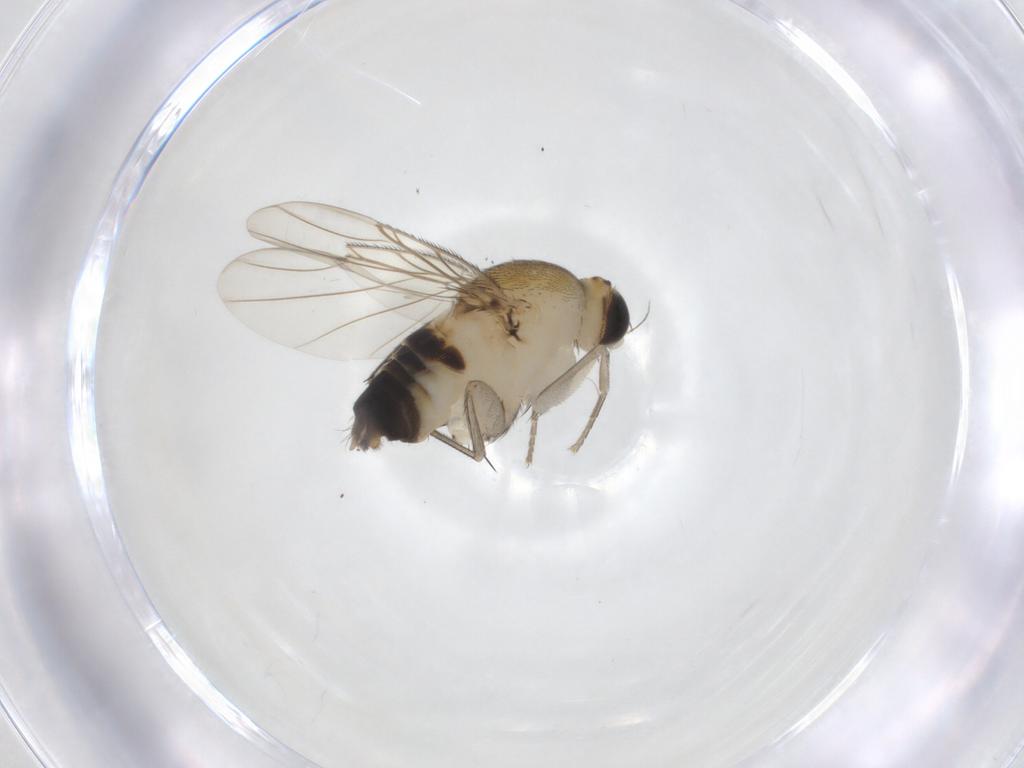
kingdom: Animalia
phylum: Arthropoda
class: Insecta
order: Diptera
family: Phoridae
